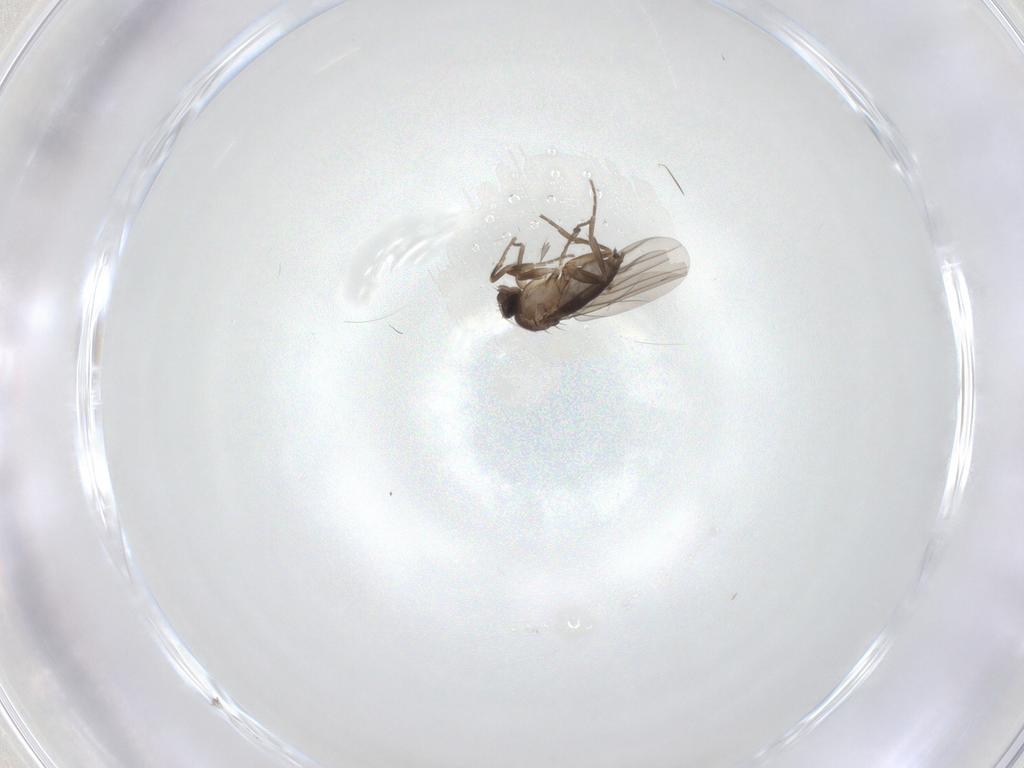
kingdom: Animalia
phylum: Arthropoda
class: Insecta
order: Diptera
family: Phoridae
